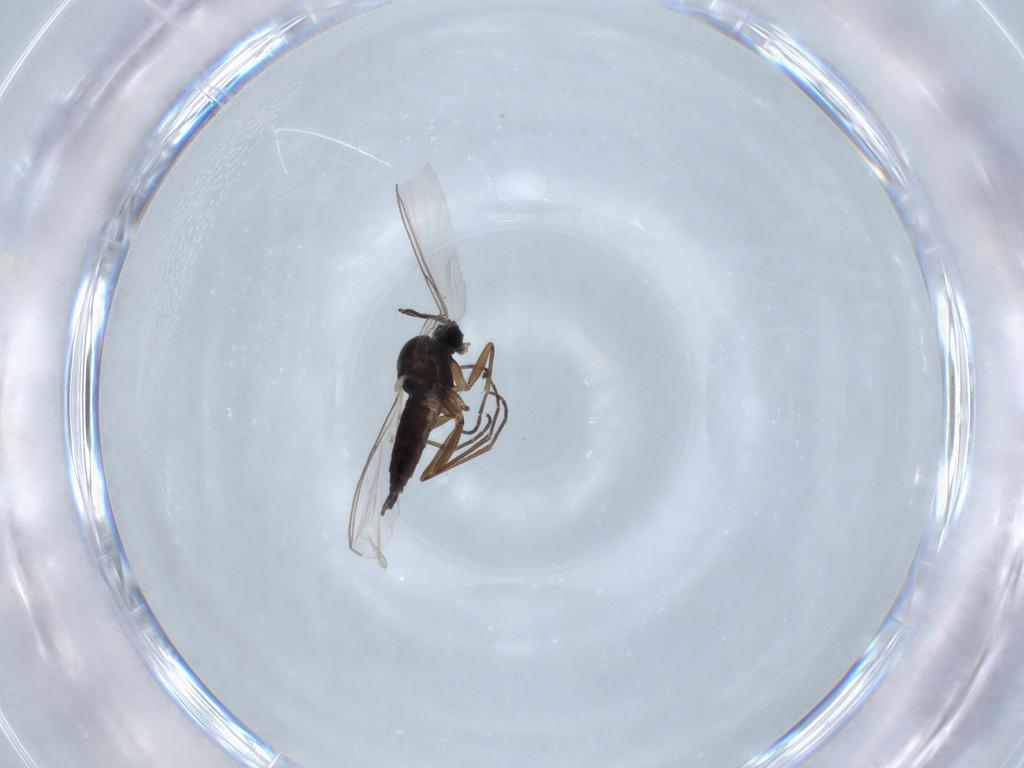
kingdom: Animalia
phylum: Arthropoda
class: Insecta
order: Diptera
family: Sciaridae
